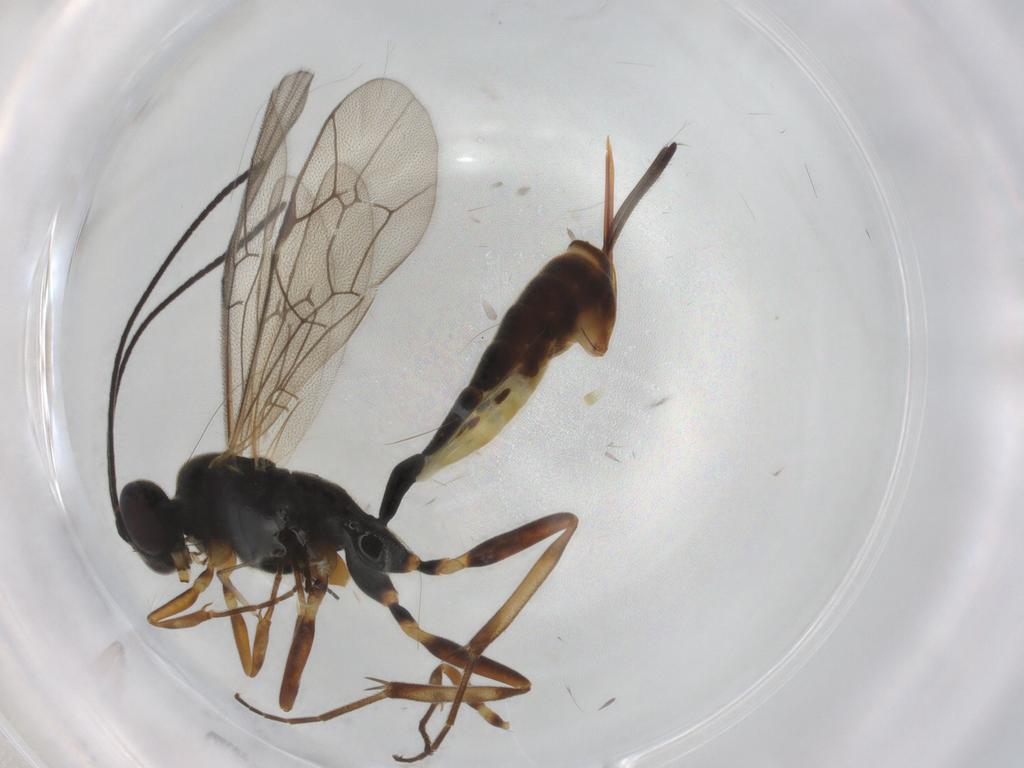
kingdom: Animalia
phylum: Arthropoda
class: Insecta
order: Hymenoptera
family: Ichneumonidae
